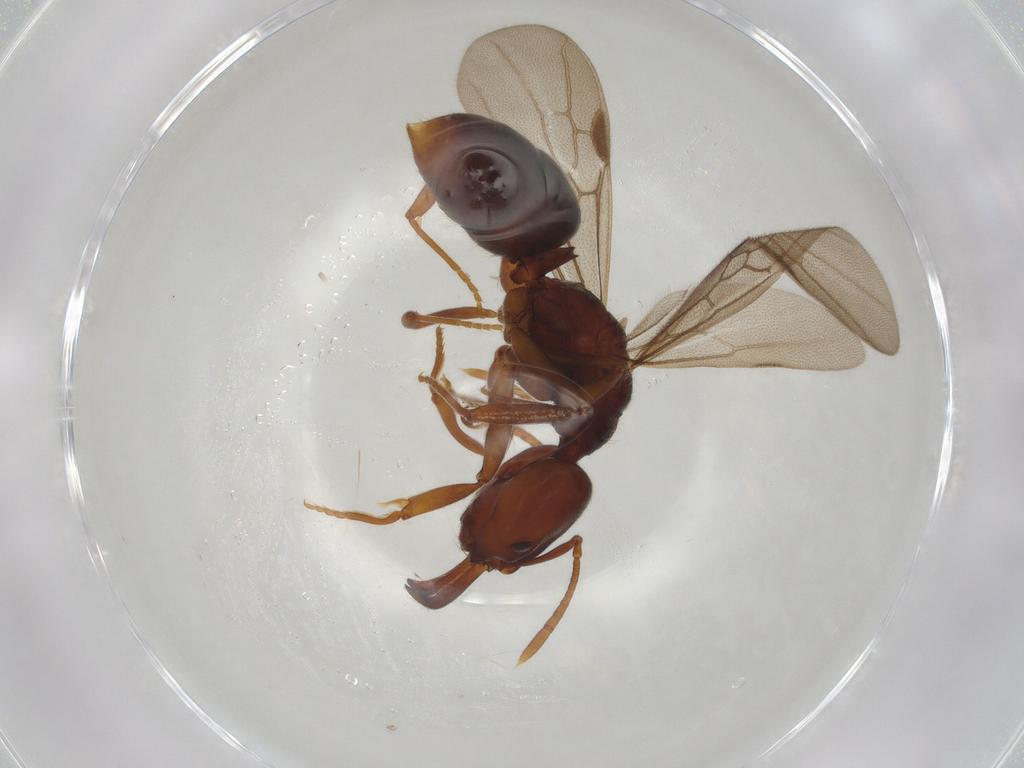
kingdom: Animalia
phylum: Arthropoda
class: Insecta
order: Hymenoptera
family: Formicidae
